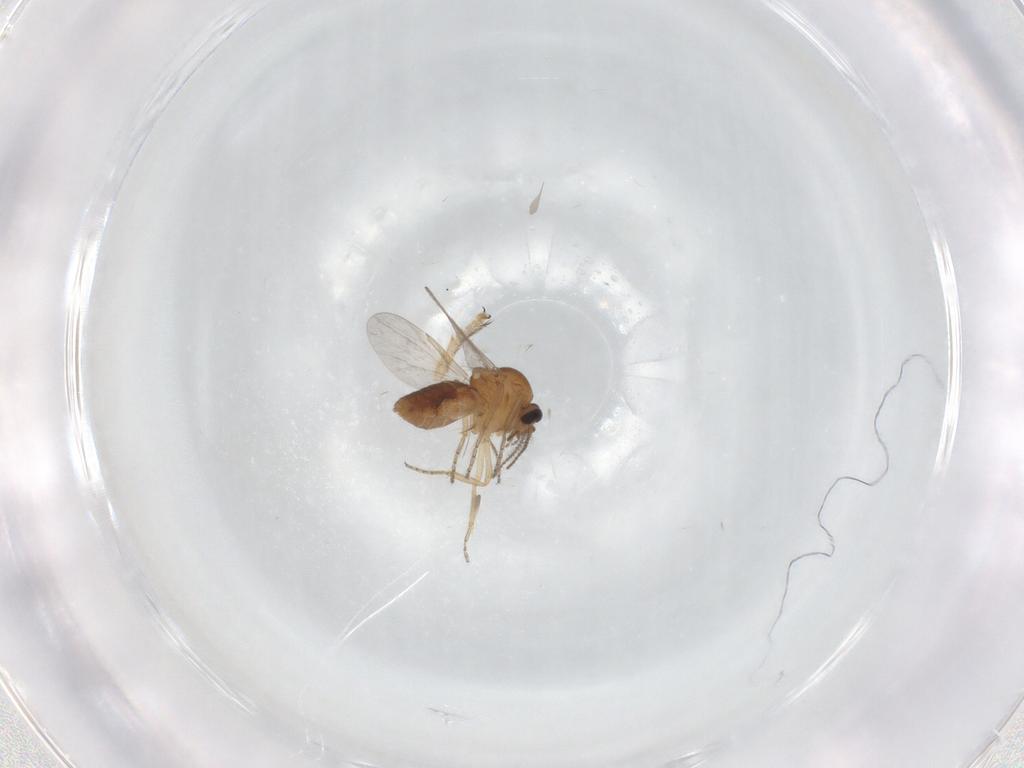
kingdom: Animalia
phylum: Arthropoda
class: Insecta
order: Diptera
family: Ceratopogonidae
